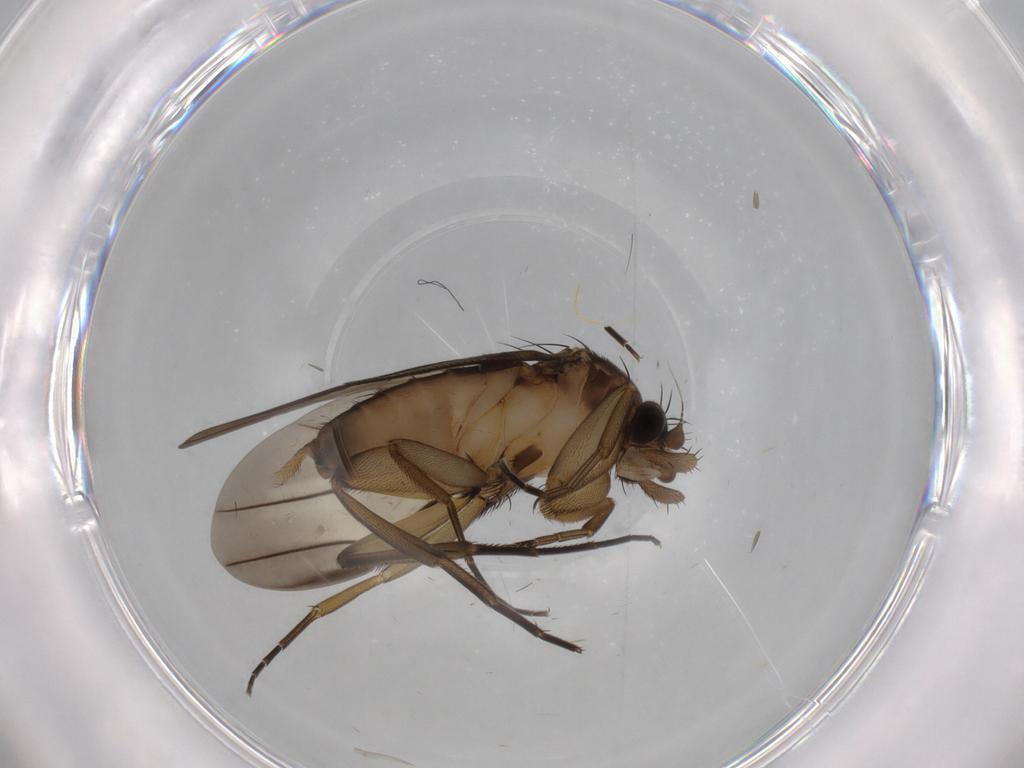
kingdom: Animalia
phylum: Arthropoda
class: Insecta
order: Diptera
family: Phoridae
